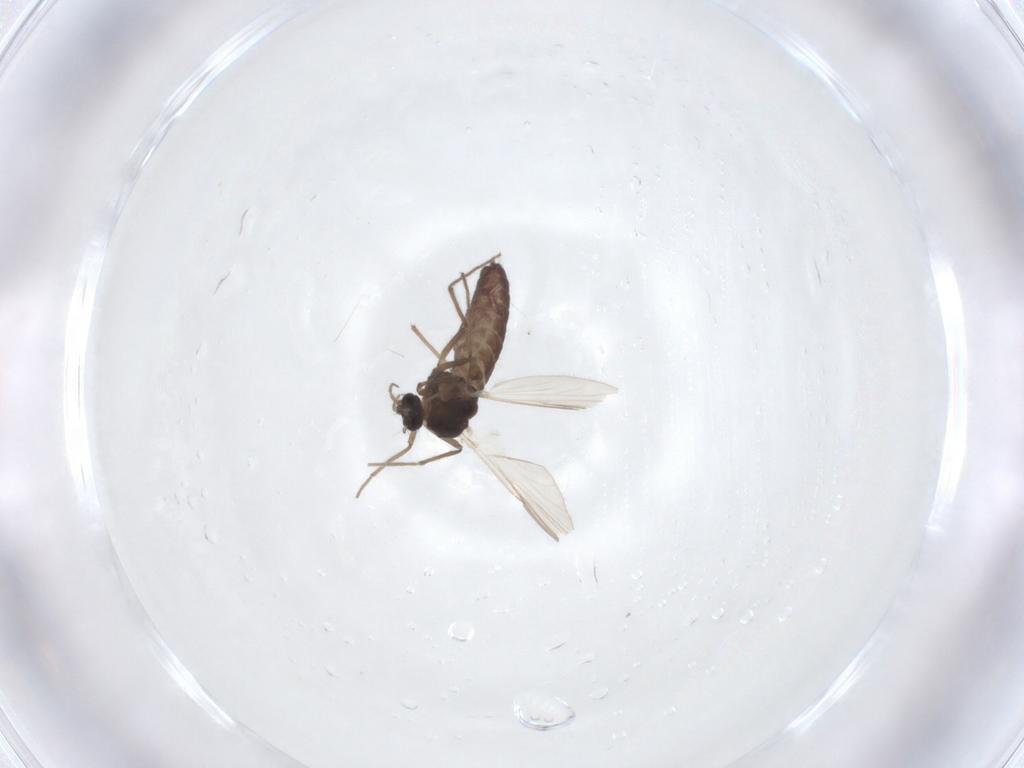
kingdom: Animalia
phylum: Arthropoda
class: Insecta
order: Diptera
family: Chironomidae
